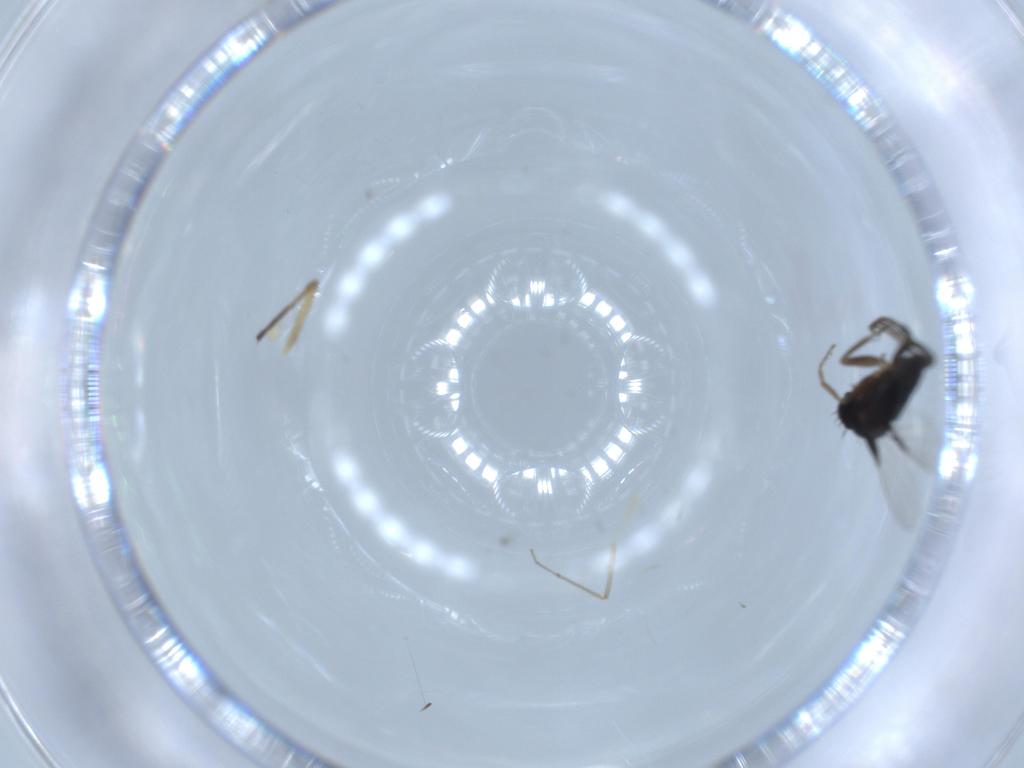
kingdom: Animalia
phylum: Arthropoda
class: Insecta
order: Diptera
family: Phoridae
